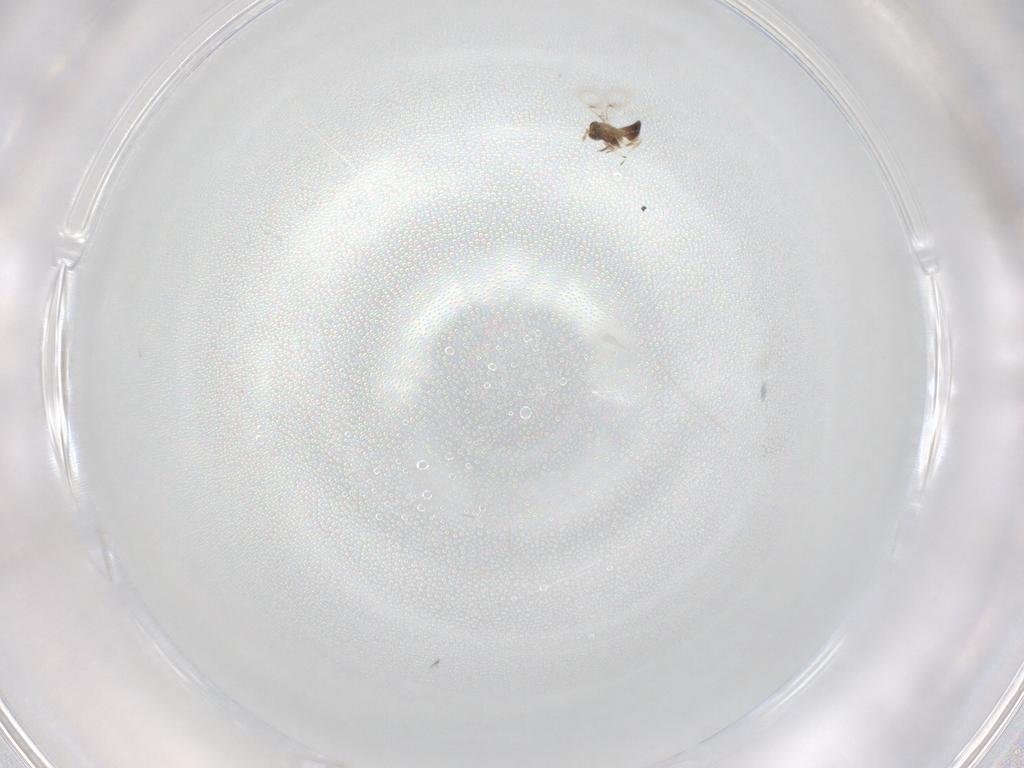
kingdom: Animalia
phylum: Arthropoda
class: Insecta
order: Hymenoptera
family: Trichogrammatidae
